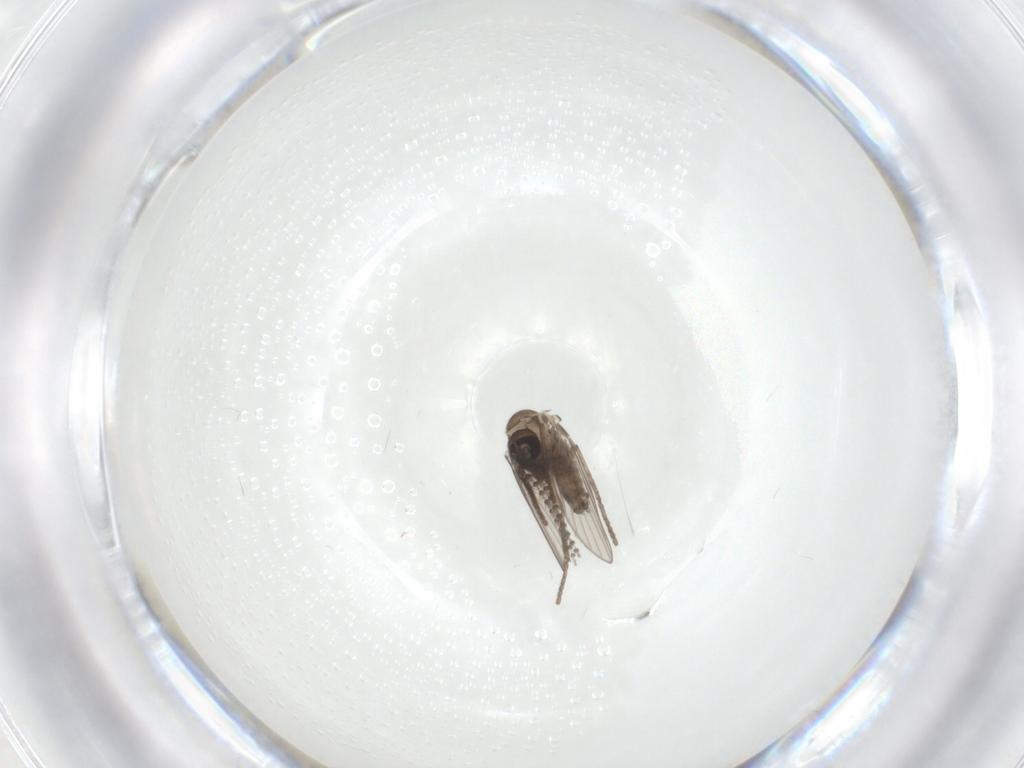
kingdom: Animalia
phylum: Arthropoda
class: Insecta
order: Diptera
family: Psychodidae
